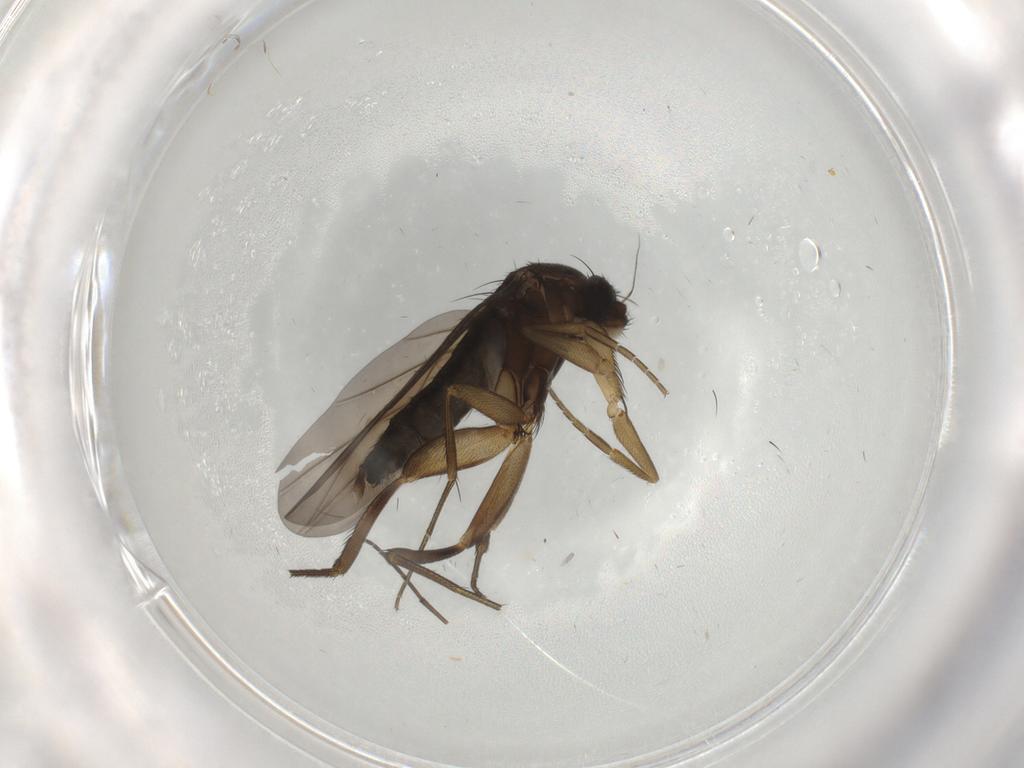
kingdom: Animalia
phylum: Arthropoda
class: Insecta
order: Diptera
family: Phoridae
